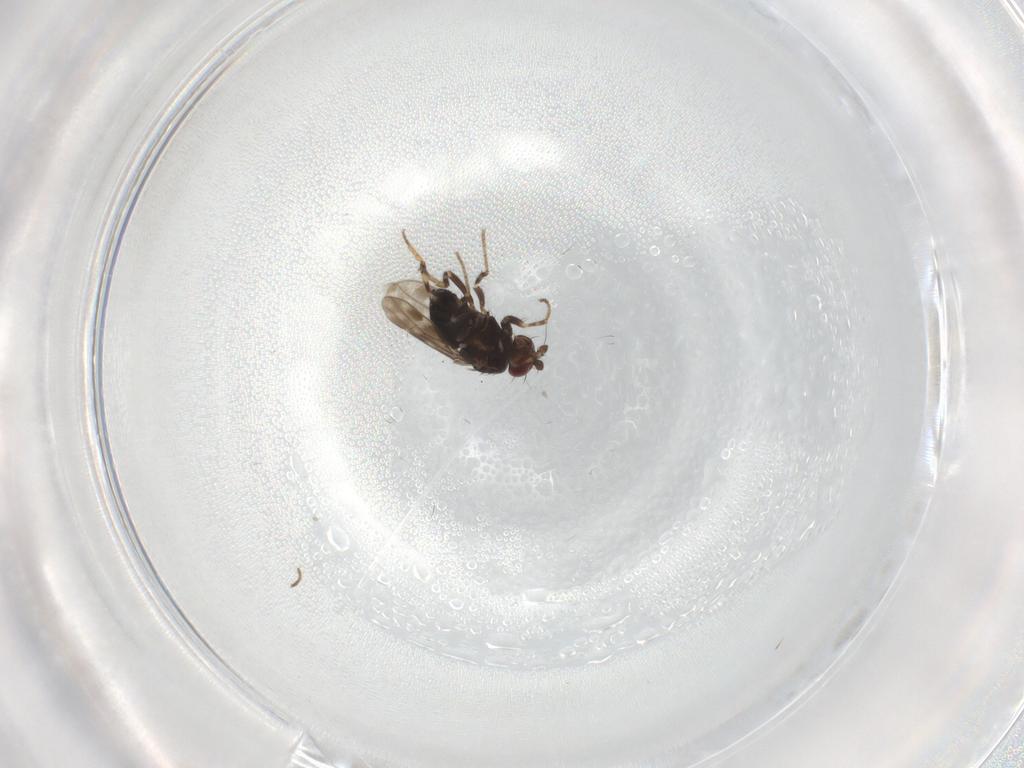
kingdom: Animalia
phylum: Arthropoda
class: Insecta
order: Diptera
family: Sphaeroceridae
